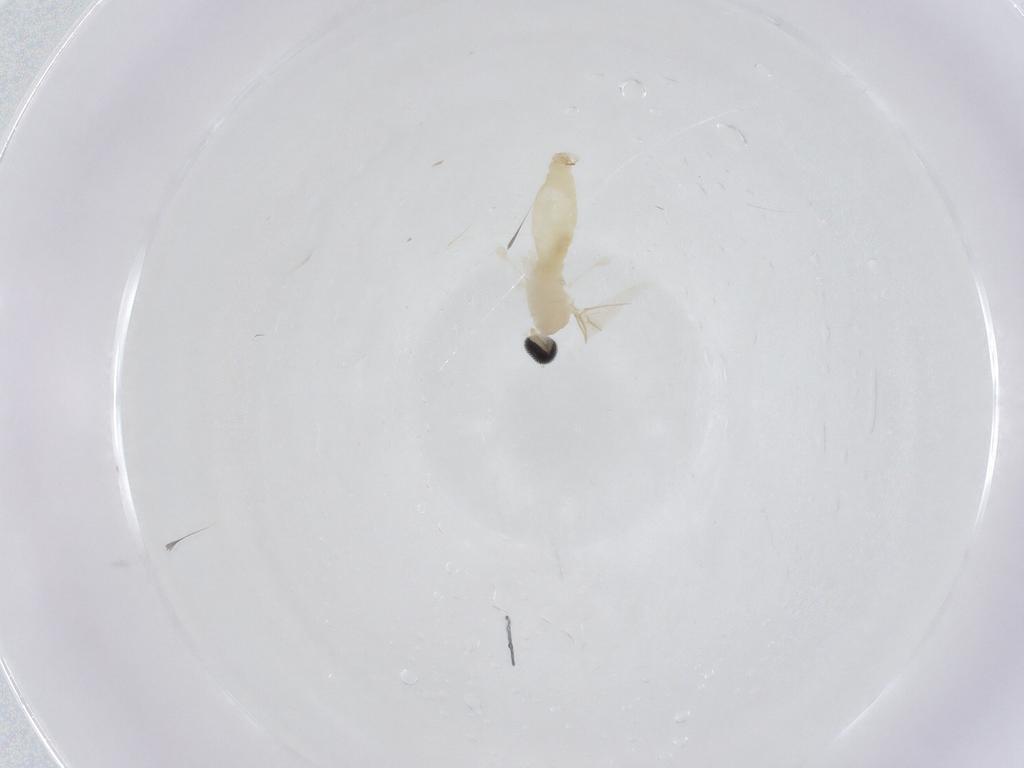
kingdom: Animalia
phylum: Arthropoda
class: Insecta
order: Diptera
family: Cecidomyiidae
